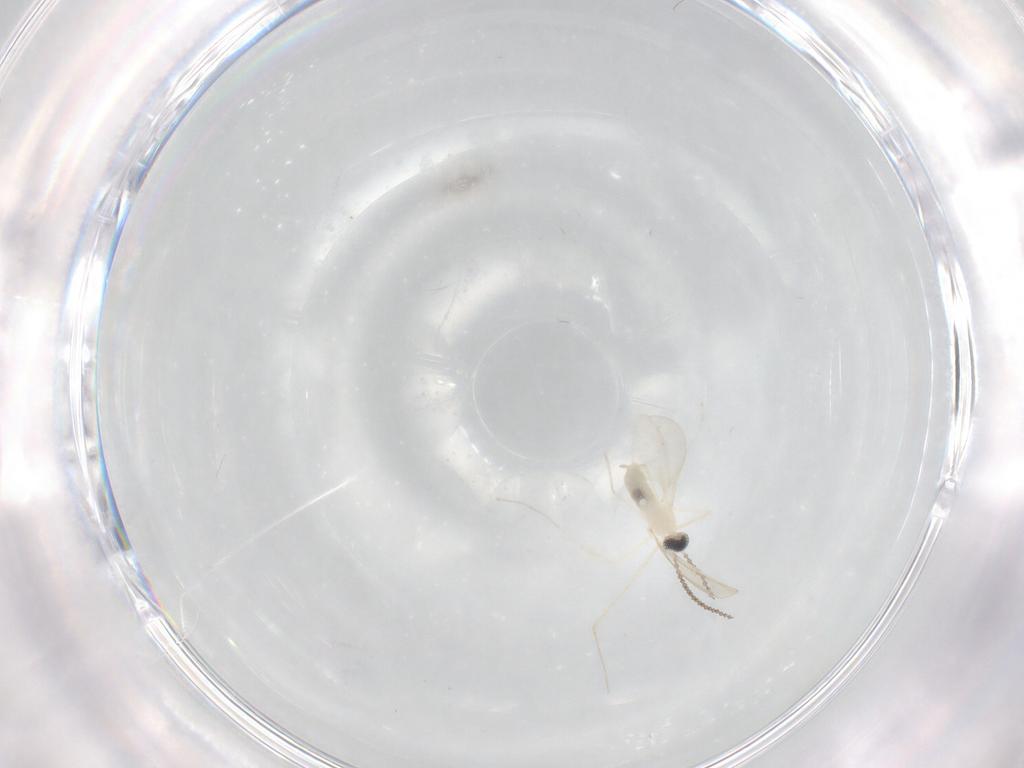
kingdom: Animalia
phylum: Arthropoda
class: Insecta
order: Diptera
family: Cecidomyiidae
